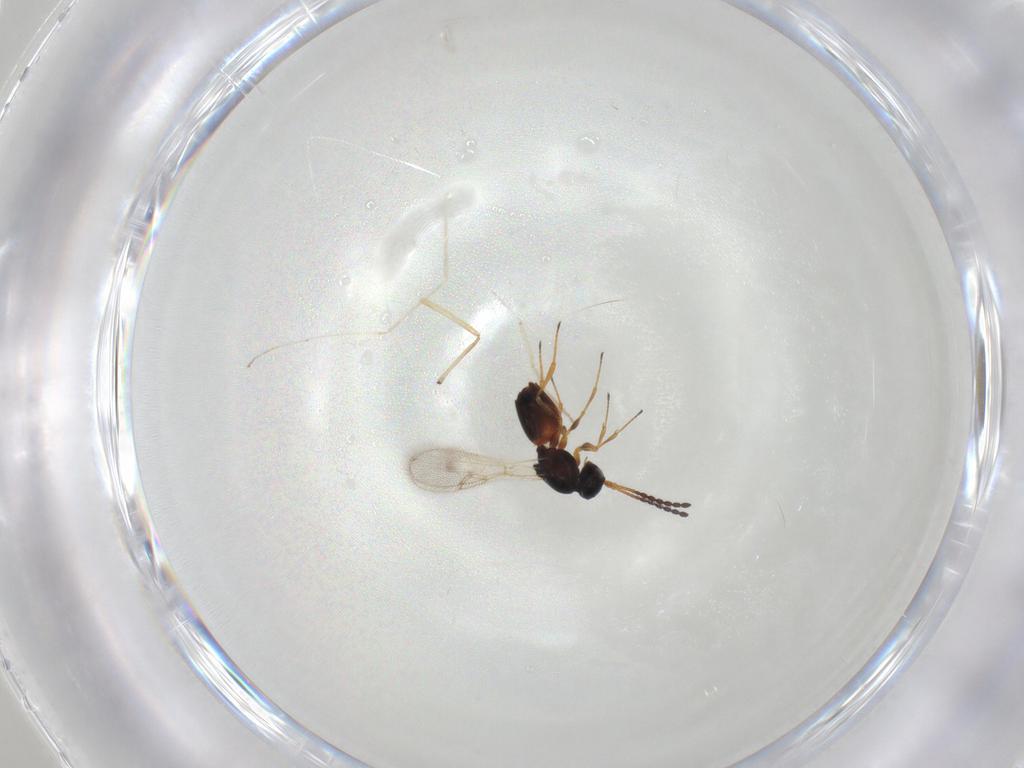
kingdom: Animalia
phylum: Arthropoda
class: Insecta
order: Hymenoptera
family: Figitidae
